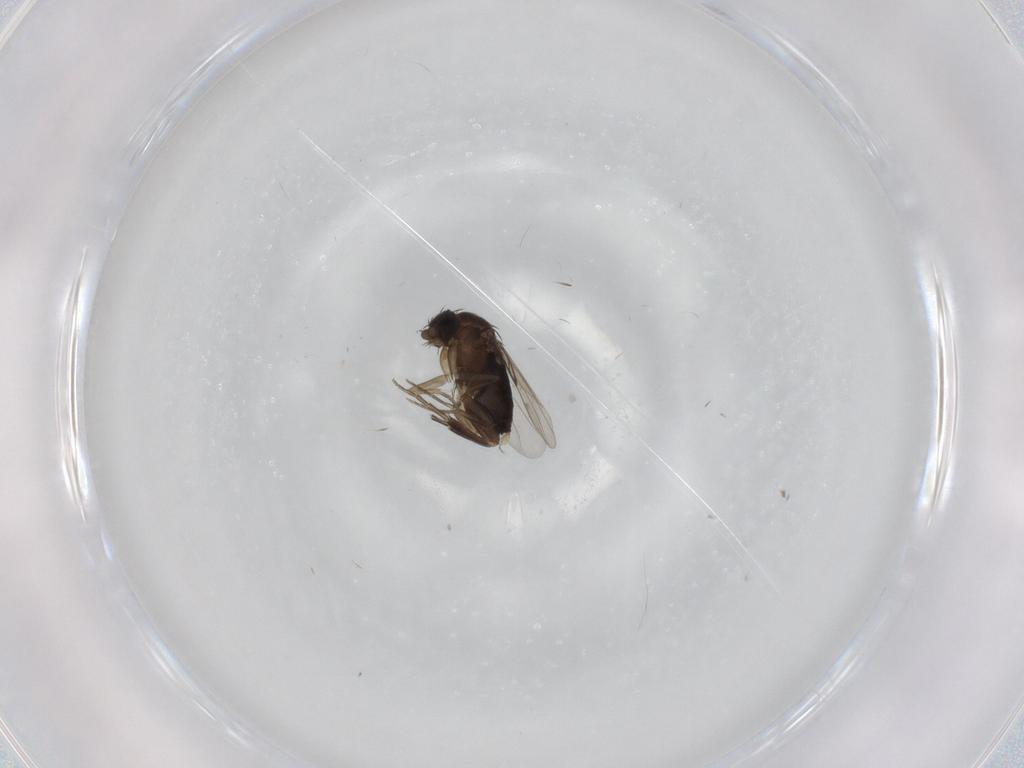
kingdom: Animalia
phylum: Arthropoda
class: Insecta
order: Diptera
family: Phoridae
